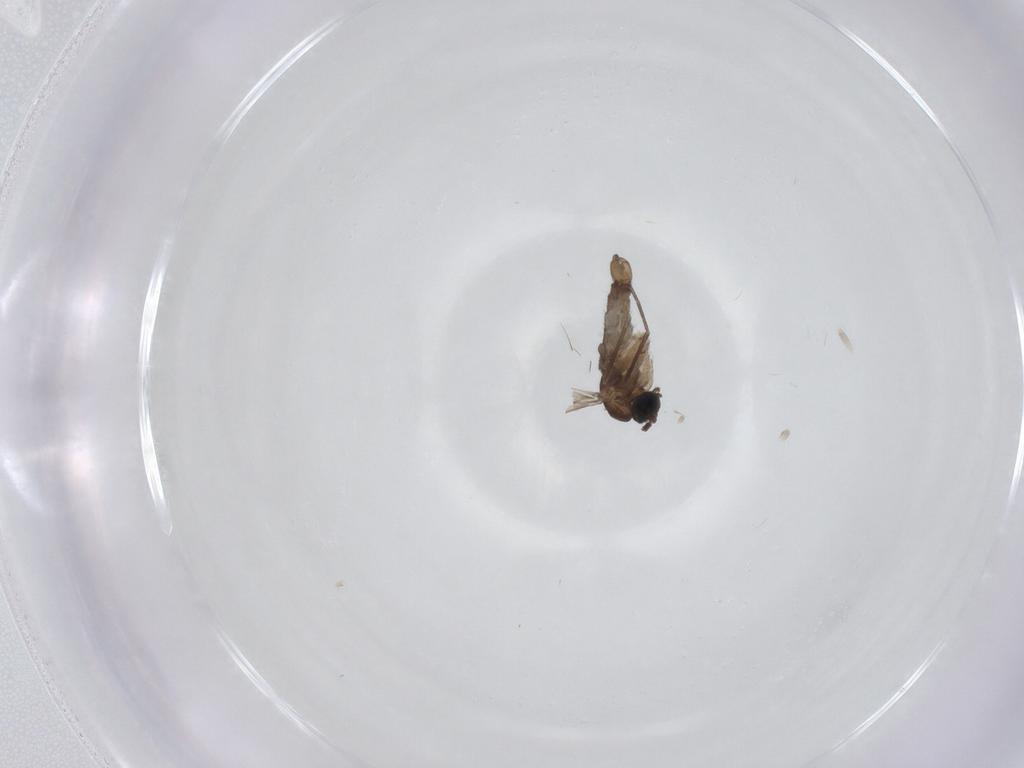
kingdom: Animalia
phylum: Arthropoda
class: Insecta
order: Diptera
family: Sciaridae
